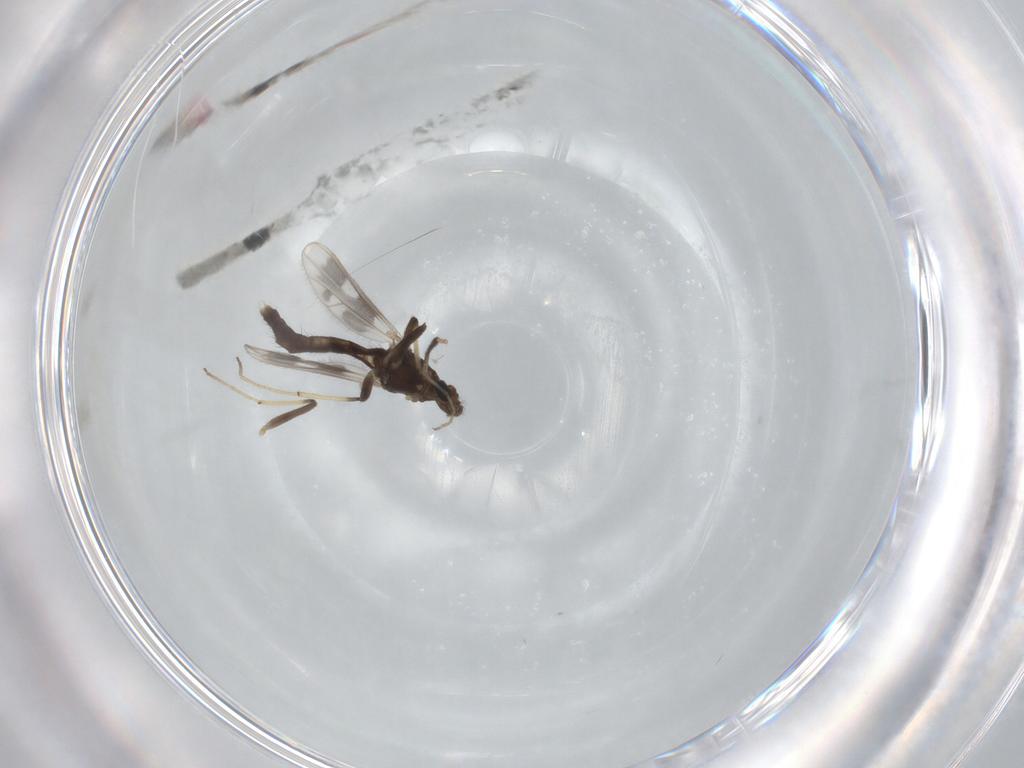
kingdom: Animalia
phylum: Arthropoda
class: Insecta
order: Diptera
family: Chironomidae
